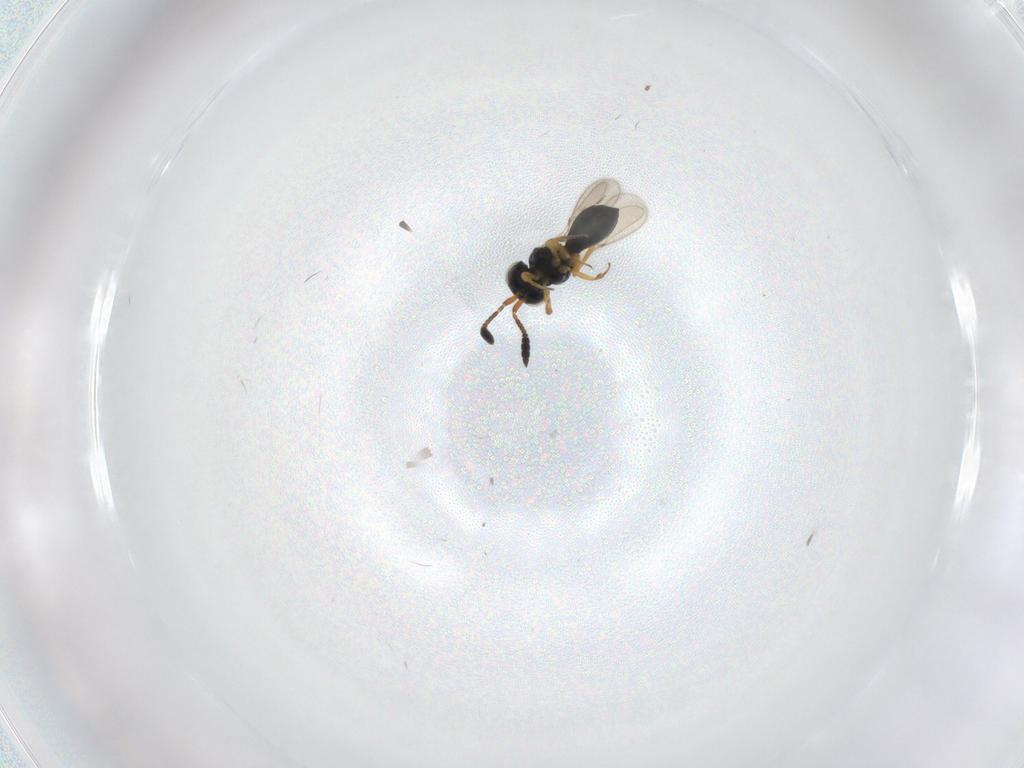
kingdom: Animalia
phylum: Arthropoda
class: Insecta
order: Hymenoptera
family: Scelionidae
